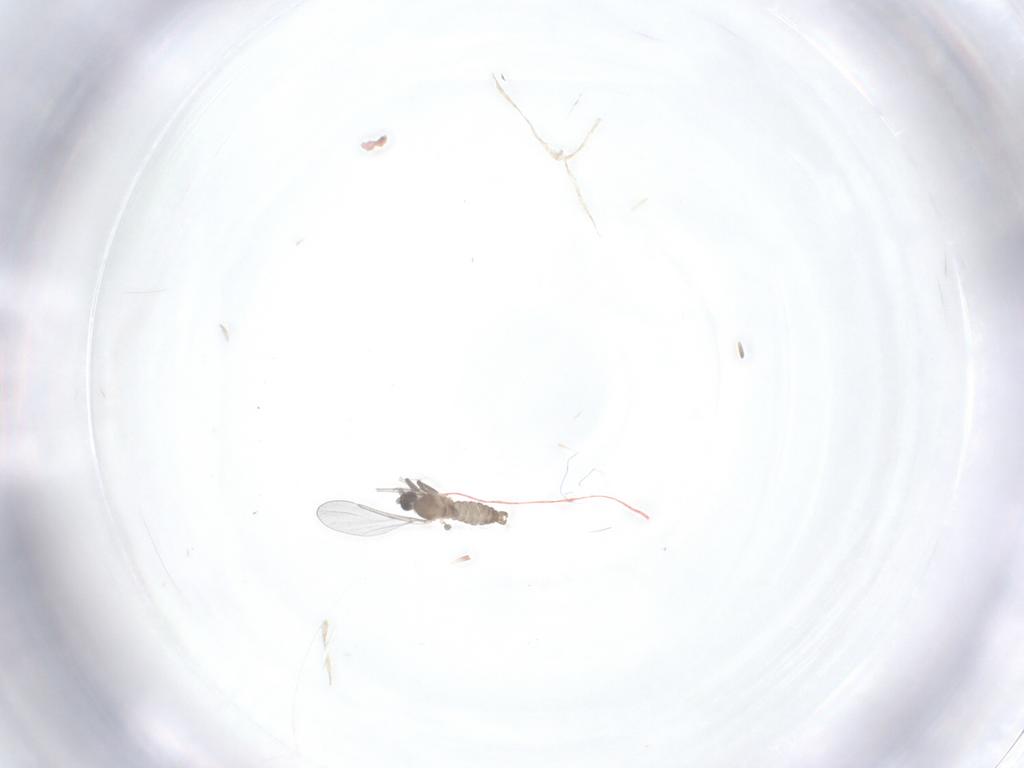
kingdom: Animalia
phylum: Arthropoda
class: Insecta
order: Diptera
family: Cecidomyiidae
